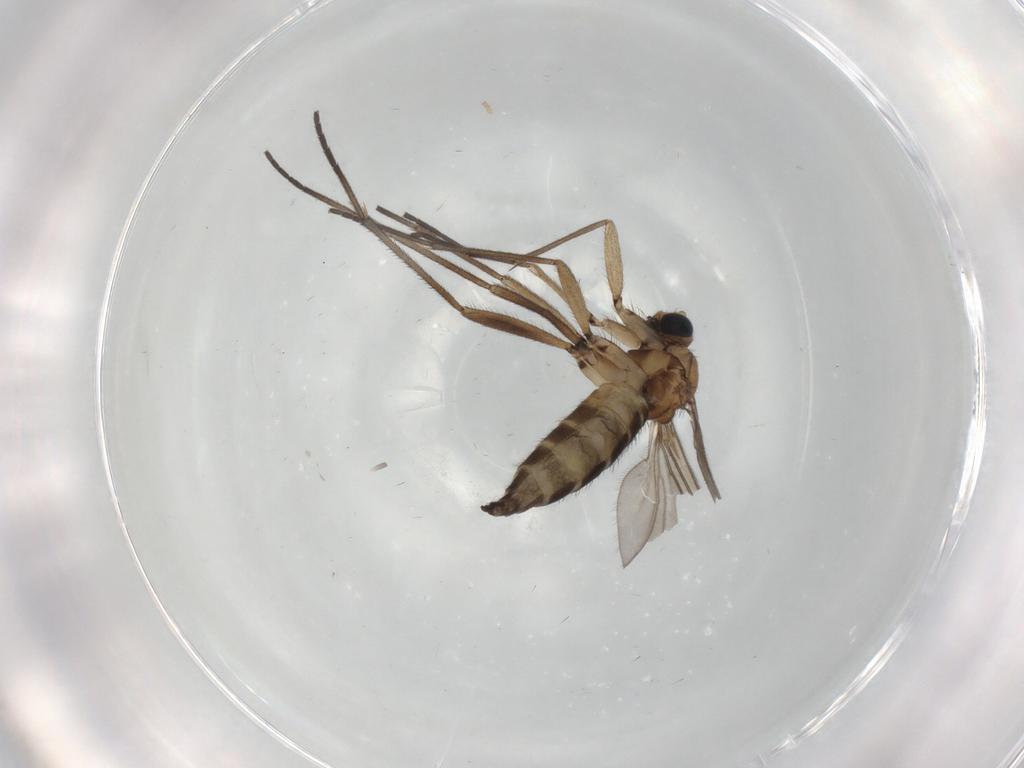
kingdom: Animalia
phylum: Arthropoda
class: Insecta
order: Diptera
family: Sciaridae
